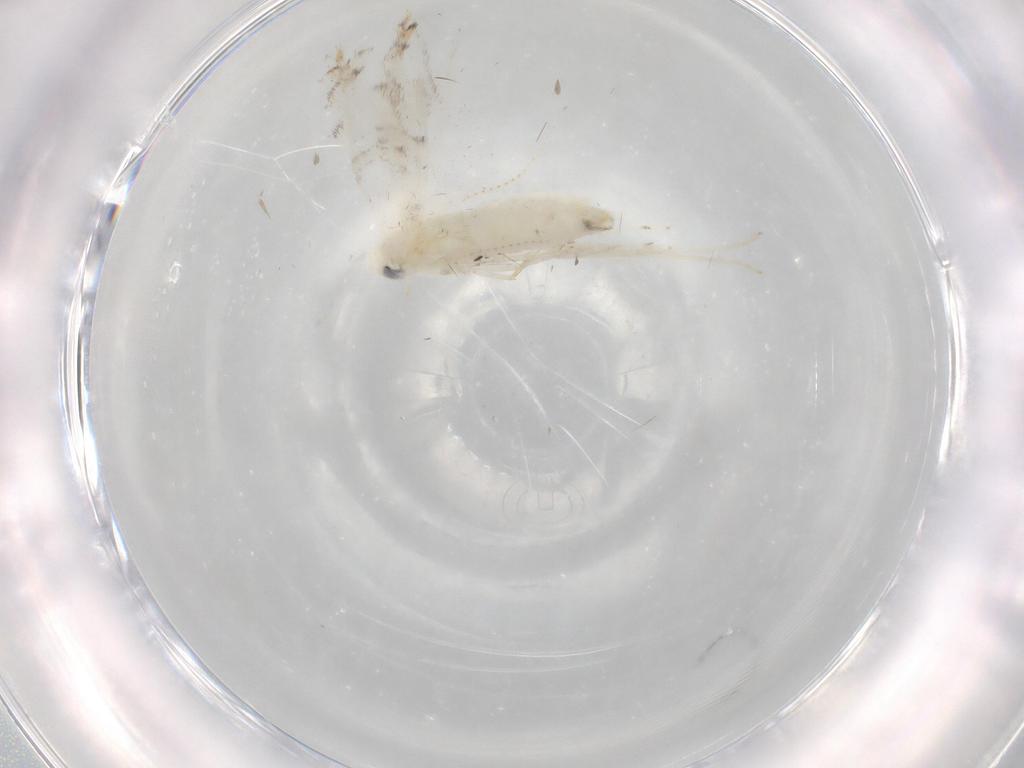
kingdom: Animalia
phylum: Arthropoda
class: Insecta
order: Lepidoptera
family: Gracillariidae
